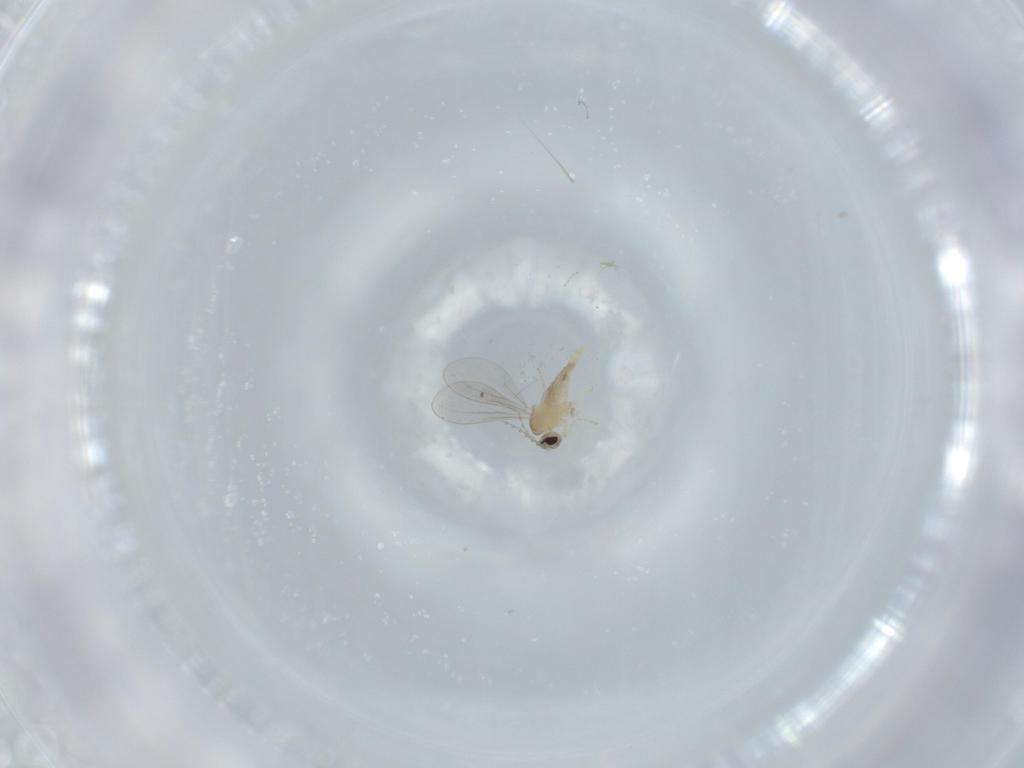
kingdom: Animalia
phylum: Arthropoda
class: Insecta
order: Diptera
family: Cecidomyiidae
